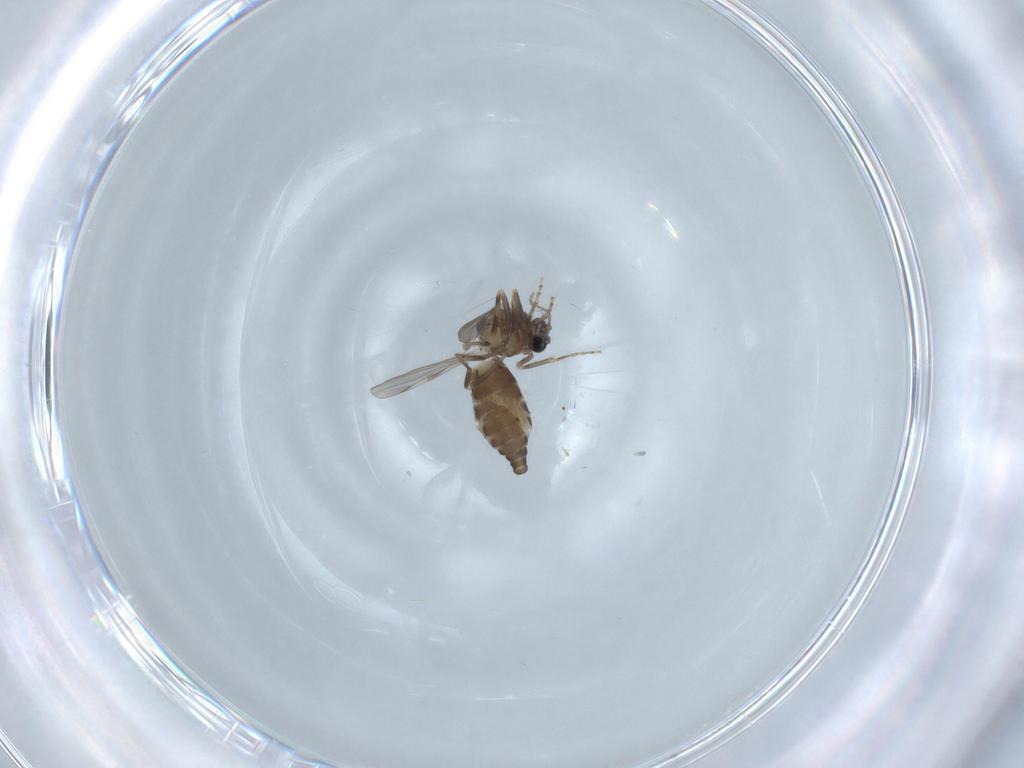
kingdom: Animalia
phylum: Arthropoda
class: Insecta
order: Diptera
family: Ceratopogonidae
